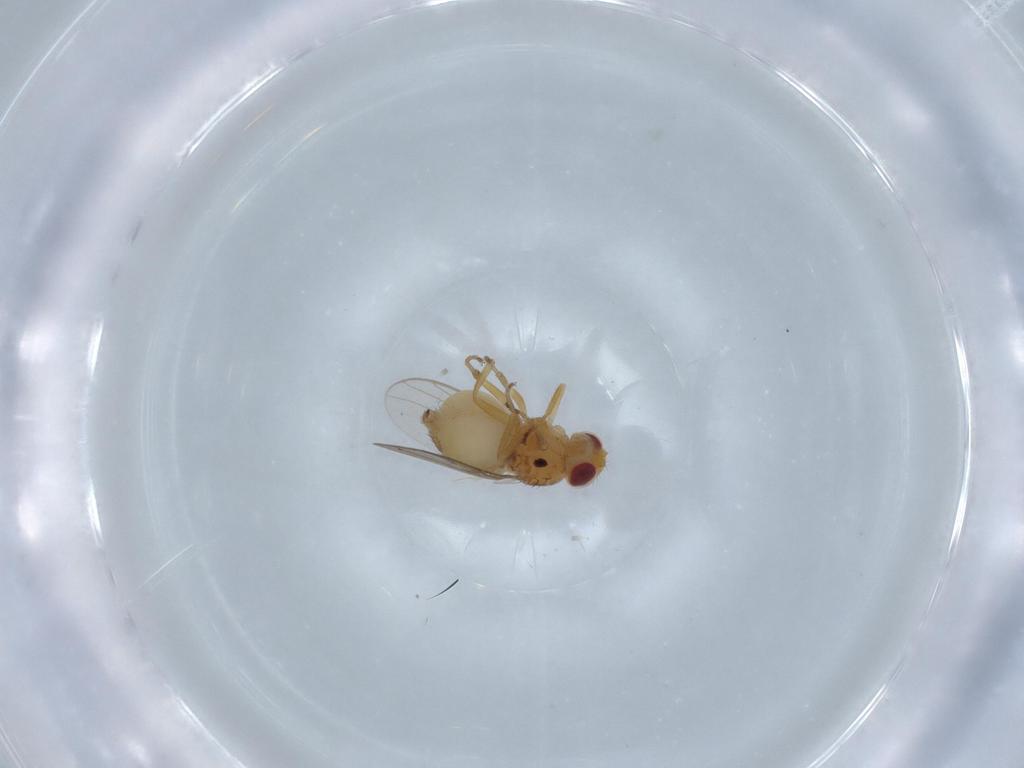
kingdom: Animalia
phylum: Arthropoda
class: Insecta
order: Diptera
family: Chloropidae
